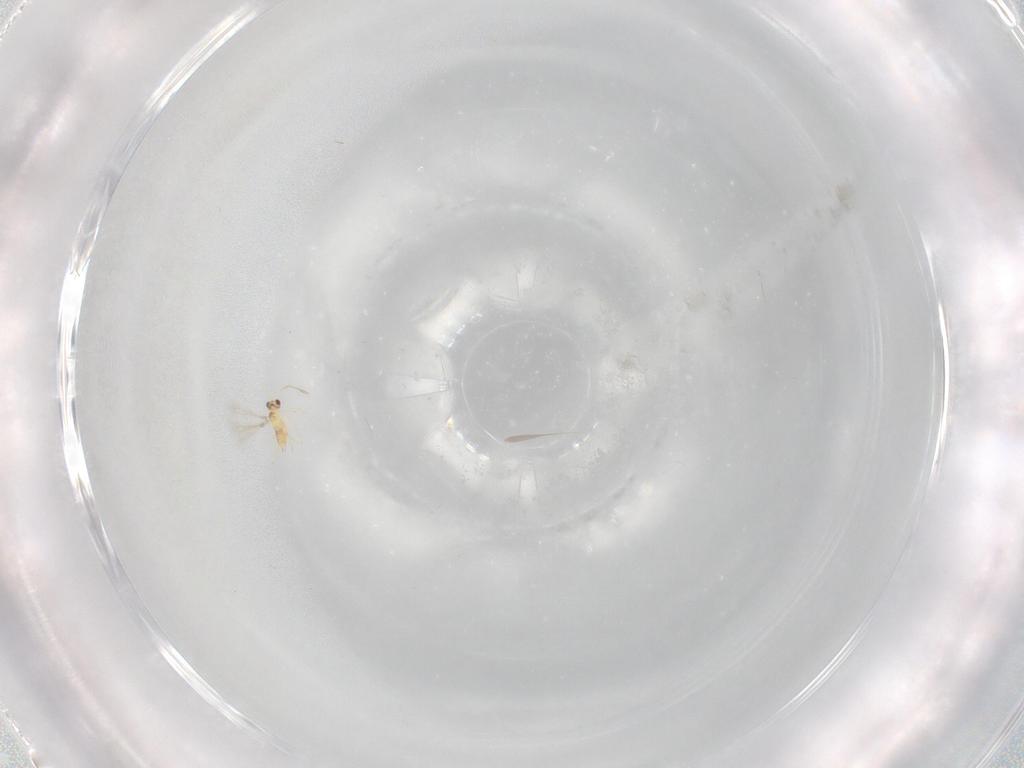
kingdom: Animalia
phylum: Arthropoda
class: Insecta
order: Hymenoptera
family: Mymaridae
